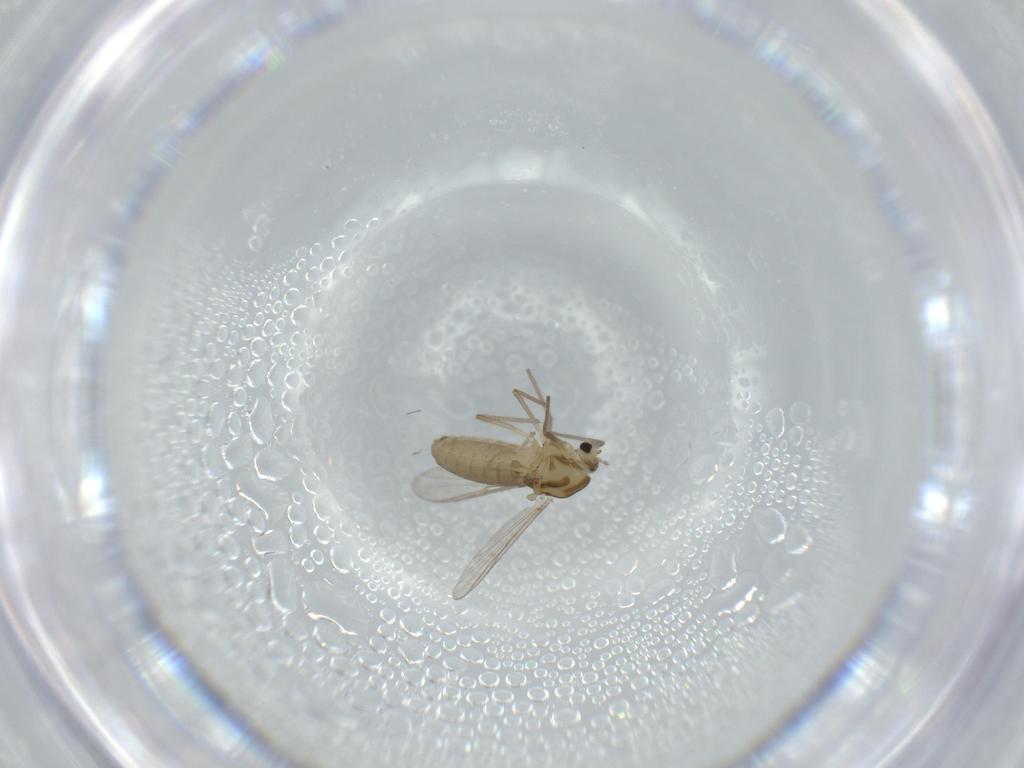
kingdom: Animalia
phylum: Arthropoda
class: Insecta
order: Diptera
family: Chironomidae
